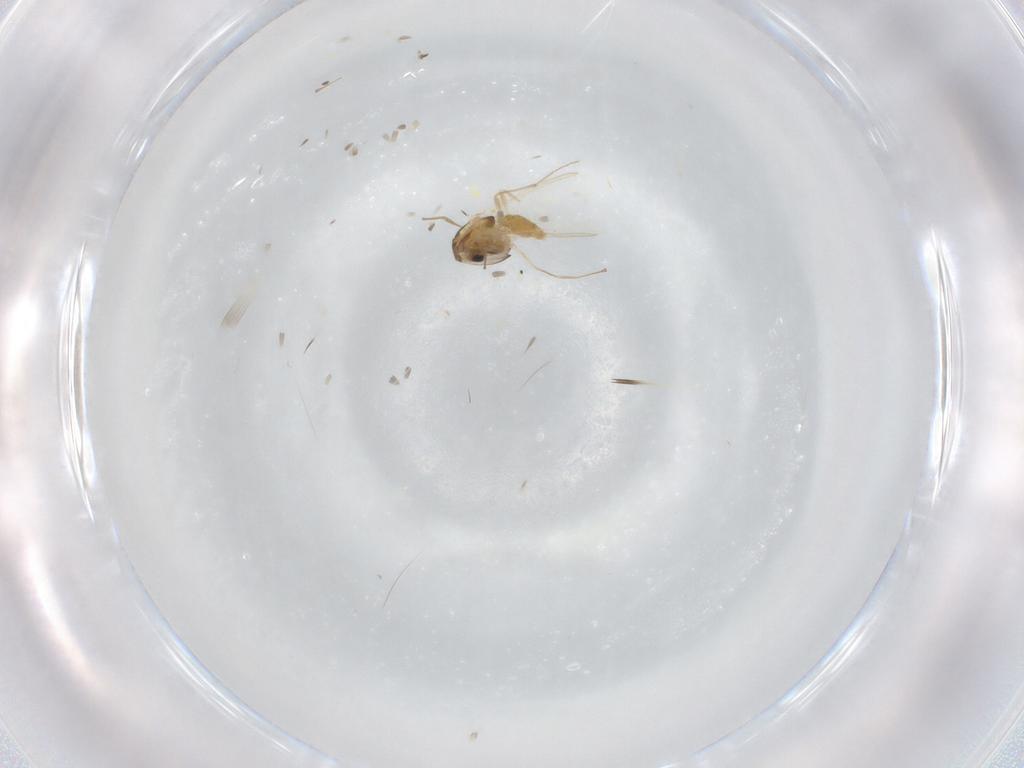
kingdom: Animalia
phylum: Arthropoda
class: Insecta
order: Diptera
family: Chironomidae
